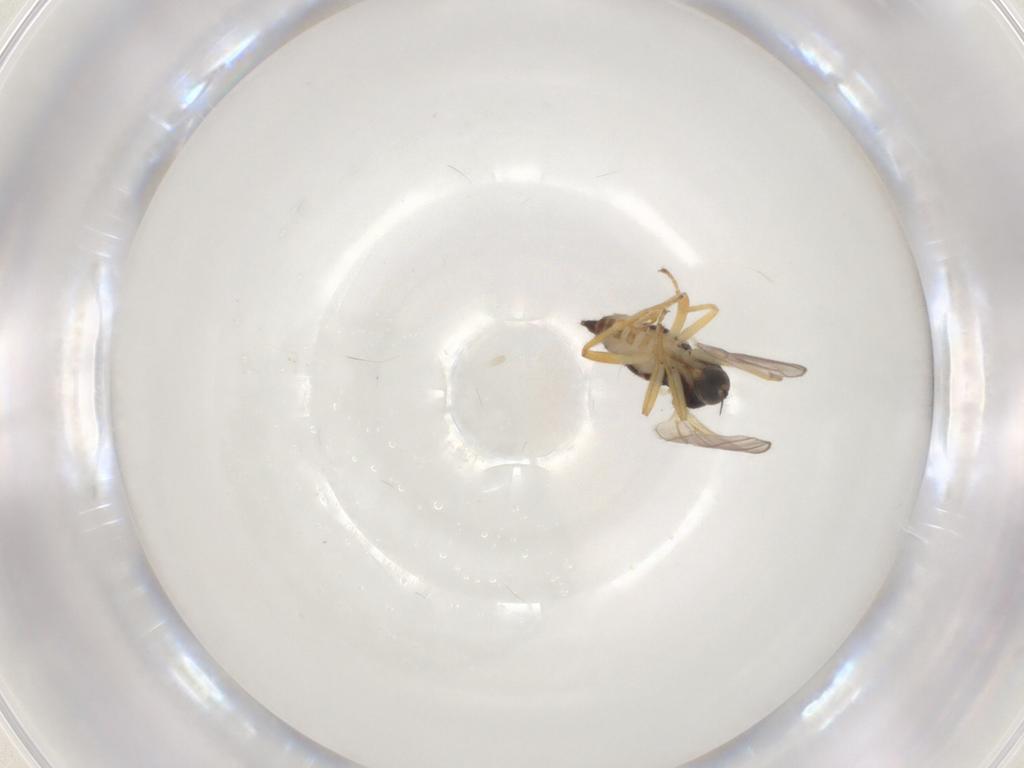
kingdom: Animalia
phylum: Arthropoda
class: Insecta
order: Diptera
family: Hybotidae
